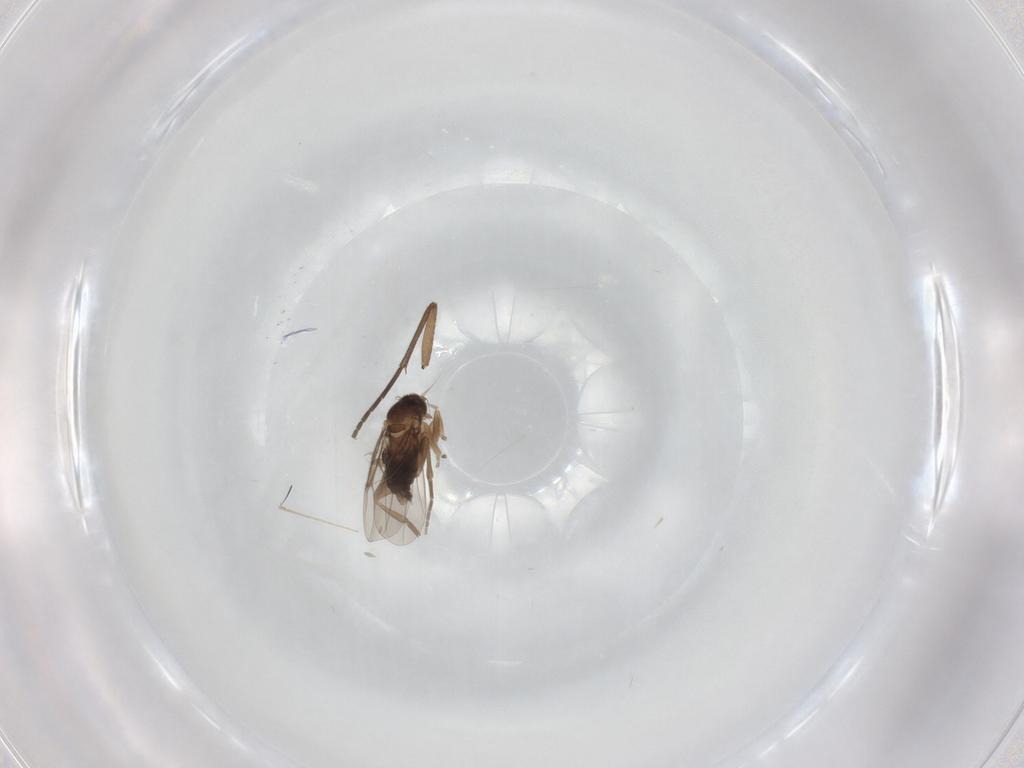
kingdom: Animalia
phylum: Arthropoda
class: Insecta
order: Diptera
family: Phoridae
